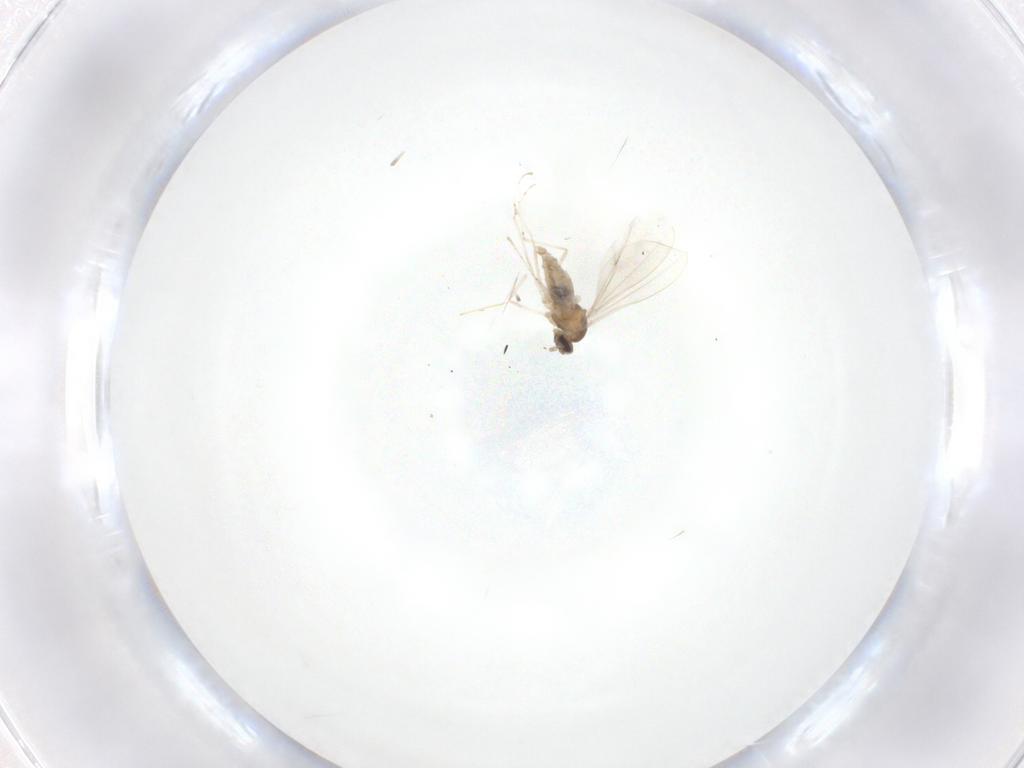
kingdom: Animalia
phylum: Arthropoda
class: Insecta
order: Diptera
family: Cecidomyiidae
